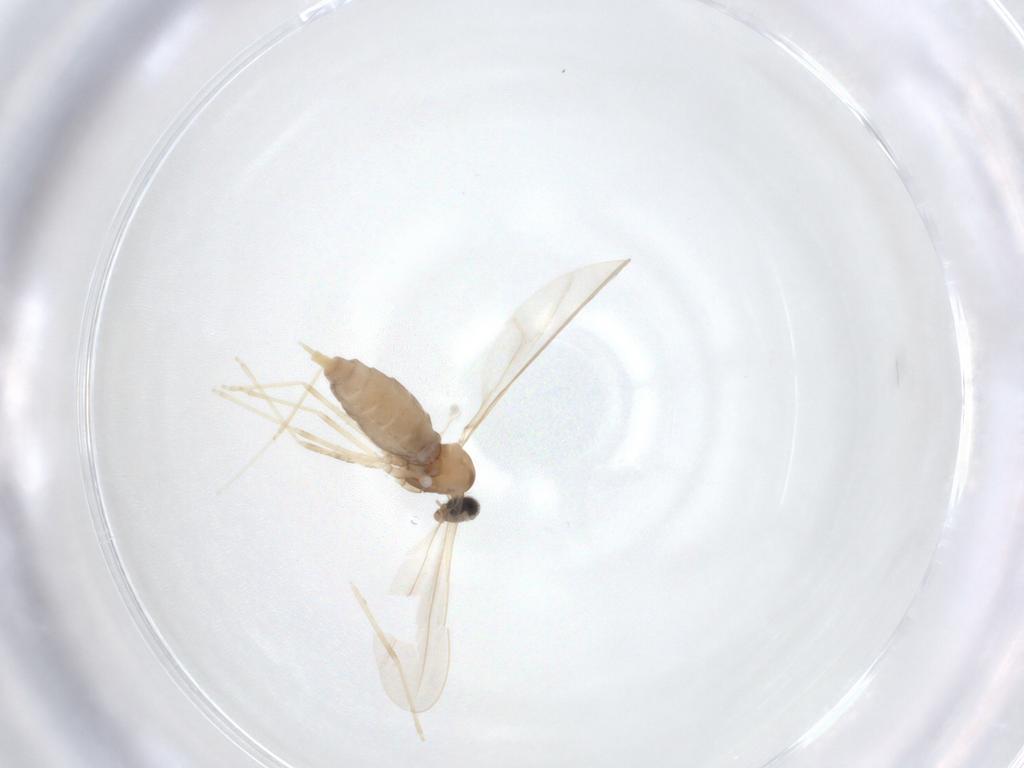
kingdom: Animalia
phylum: Arthropoda
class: Insecta
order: Diptera
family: Cecidomyiidae
